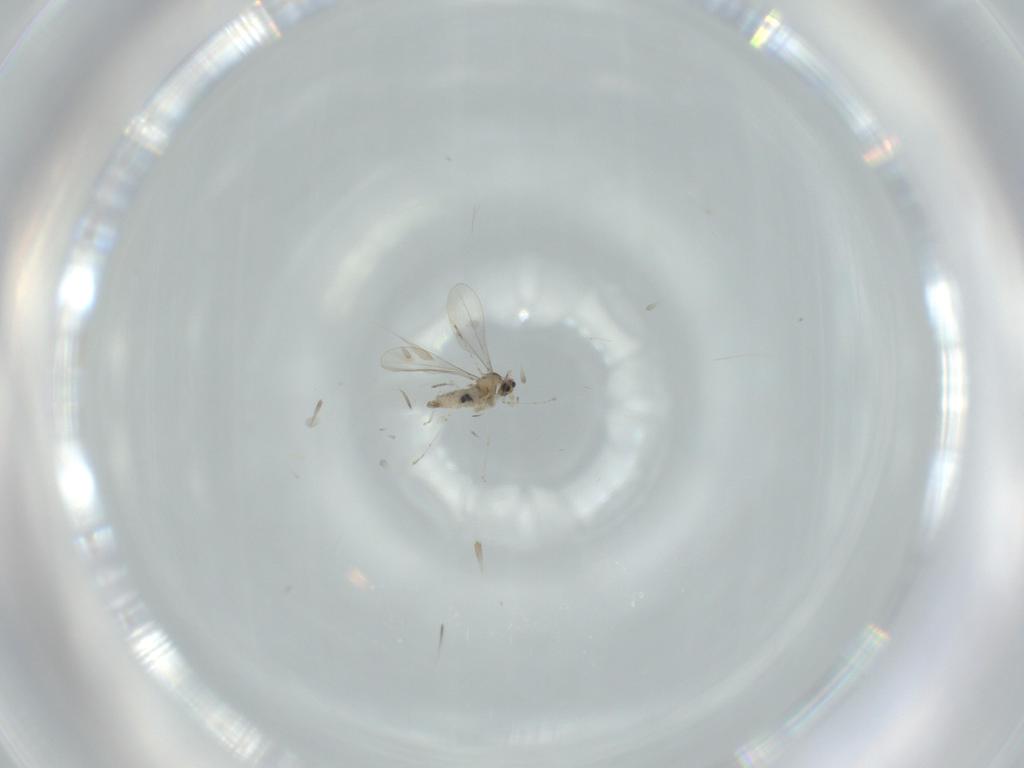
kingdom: Animalia
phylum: Arthropoda
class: Insecta
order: Diptera
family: Cecidomyiidae
